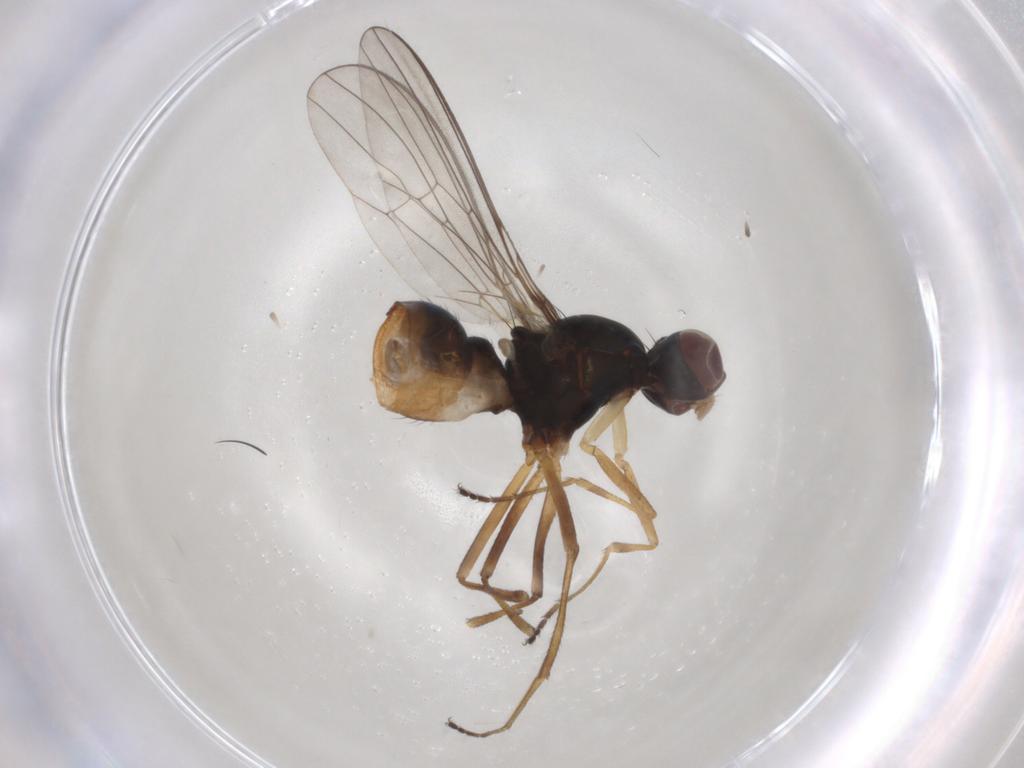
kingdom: Animalia
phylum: Arthropoda
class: Insecta
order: Diptera
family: Sepsidae
